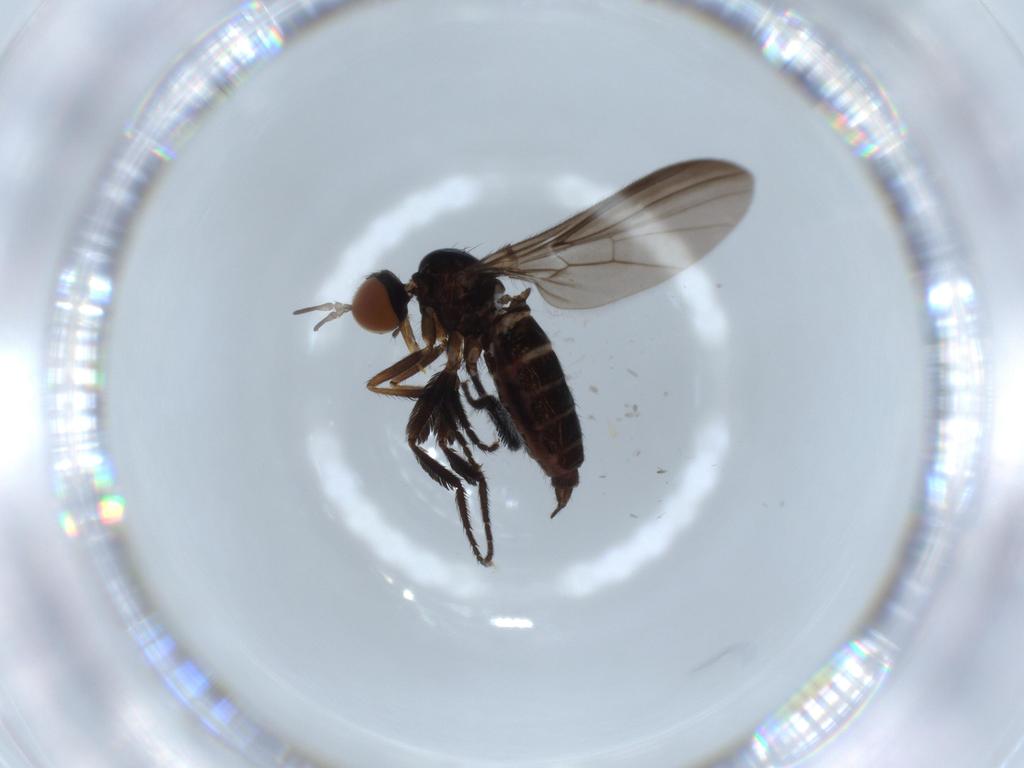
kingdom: Animalia
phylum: Arthropoda
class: Insecta
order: Diptera
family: Empididae
